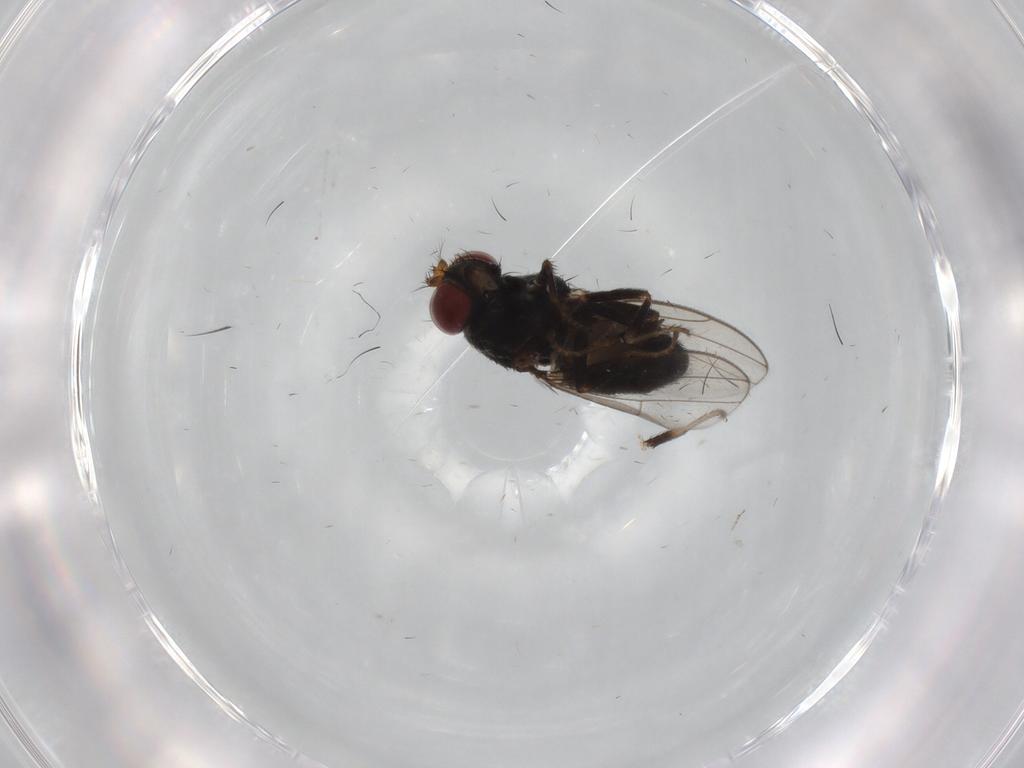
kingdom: Animalia
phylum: Arthropoda
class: Insecta
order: Diptera
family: Ephydridae
